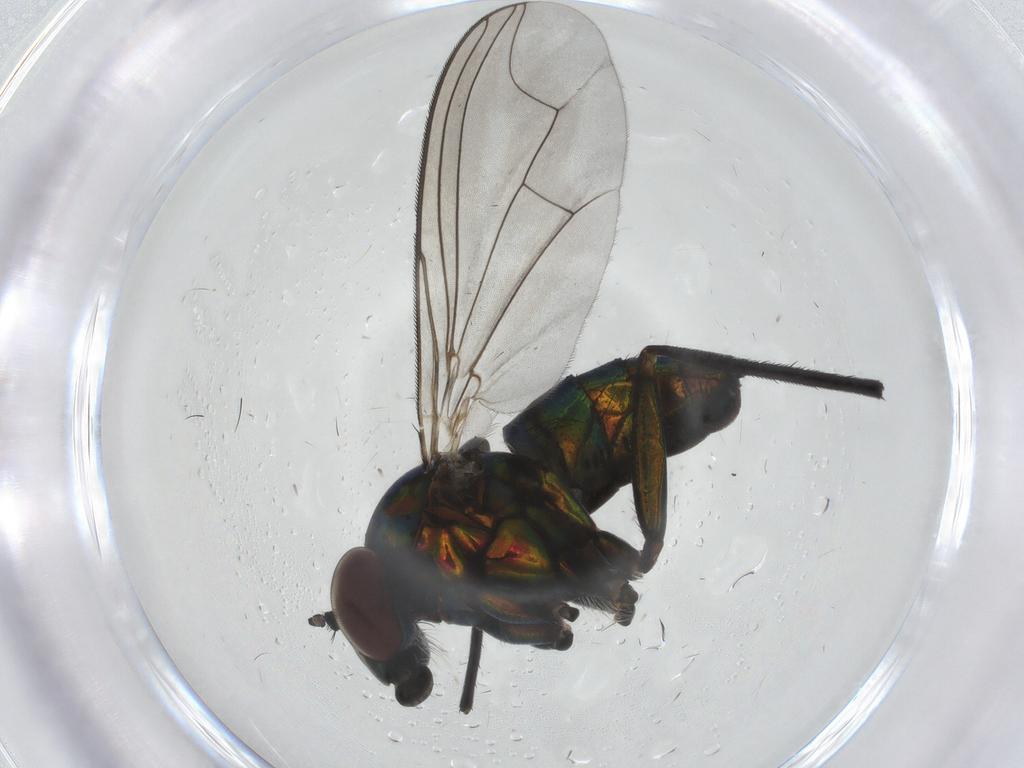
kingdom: Animalia
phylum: Arthropoda
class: Insecta
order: Diptera
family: Dolichopodidae
